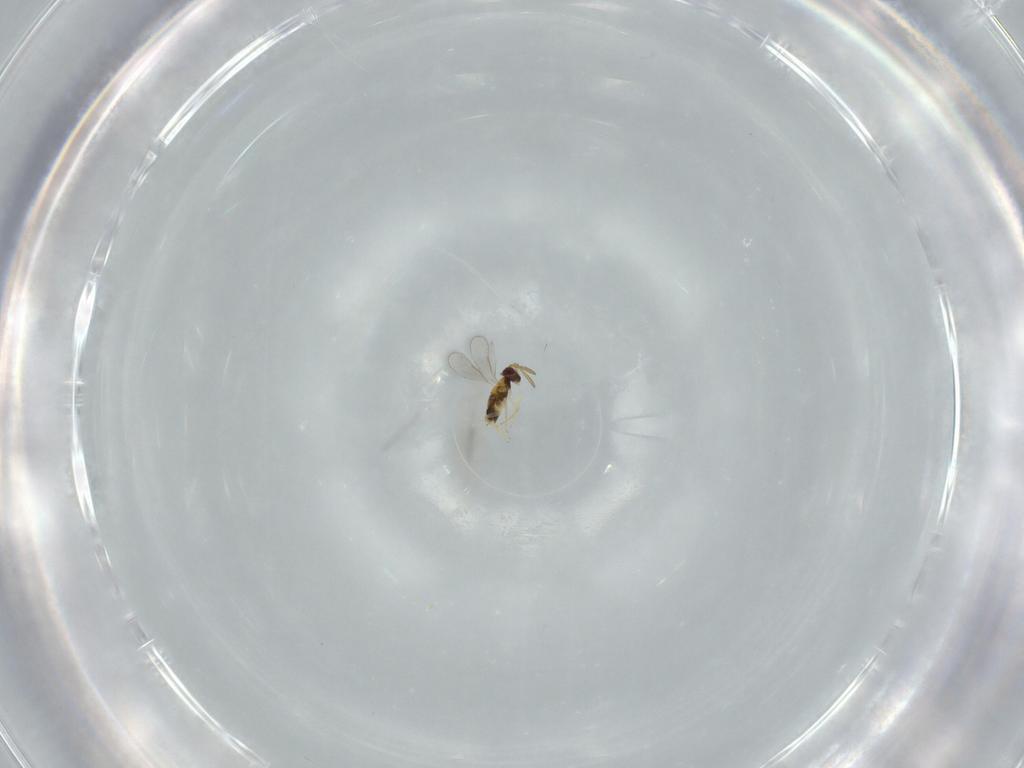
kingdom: Animalia
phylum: Arthropoda
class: Insecta
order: Hymenoptera
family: Aphelinidae
